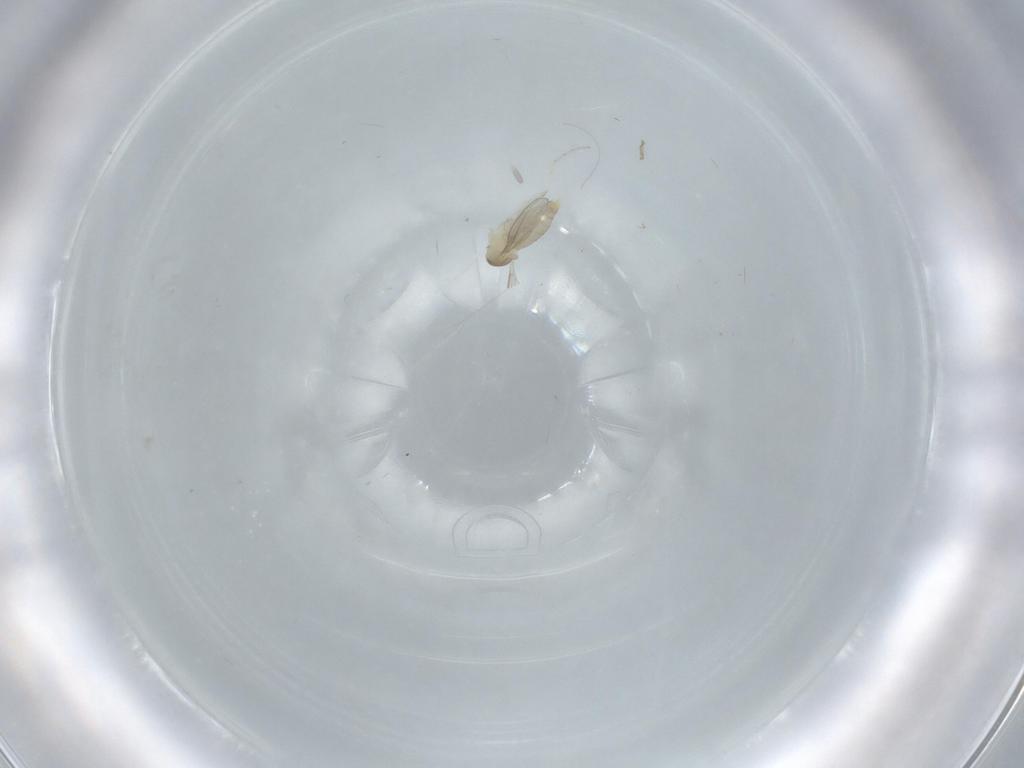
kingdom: Animalia
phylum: Arthropoda
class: Insecta
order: Diptera
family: Cecidomyiidae
